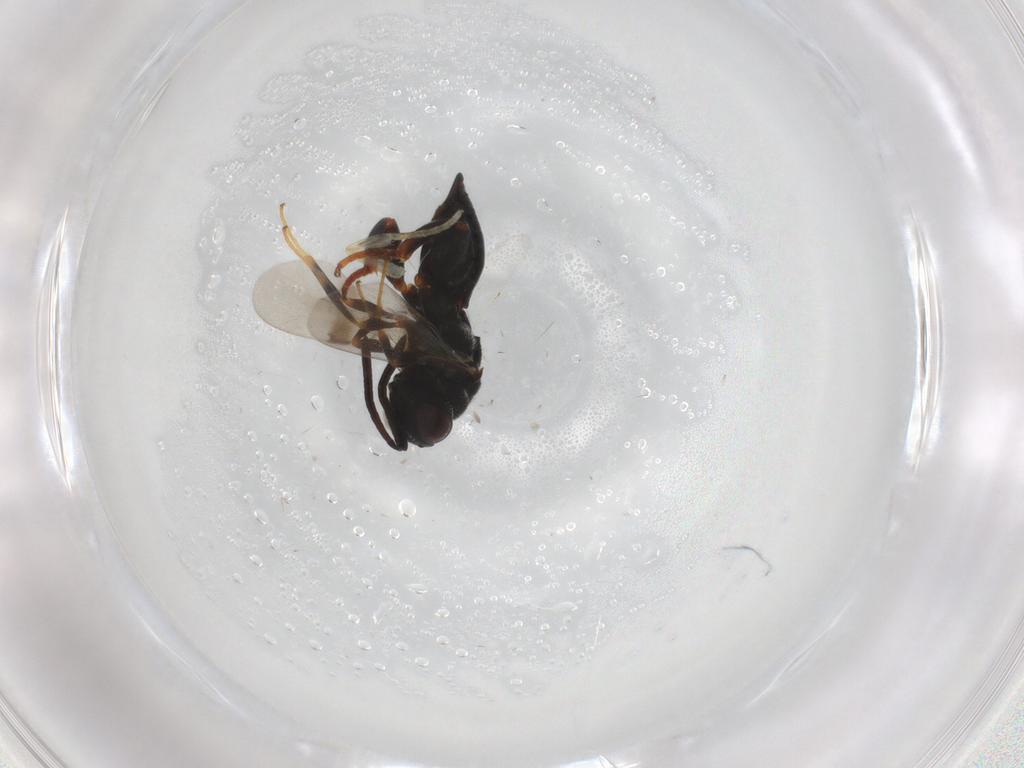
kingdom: Animalia
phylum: Arthropoda
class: Insecta
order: Hymenoptera
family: Chalcididae
